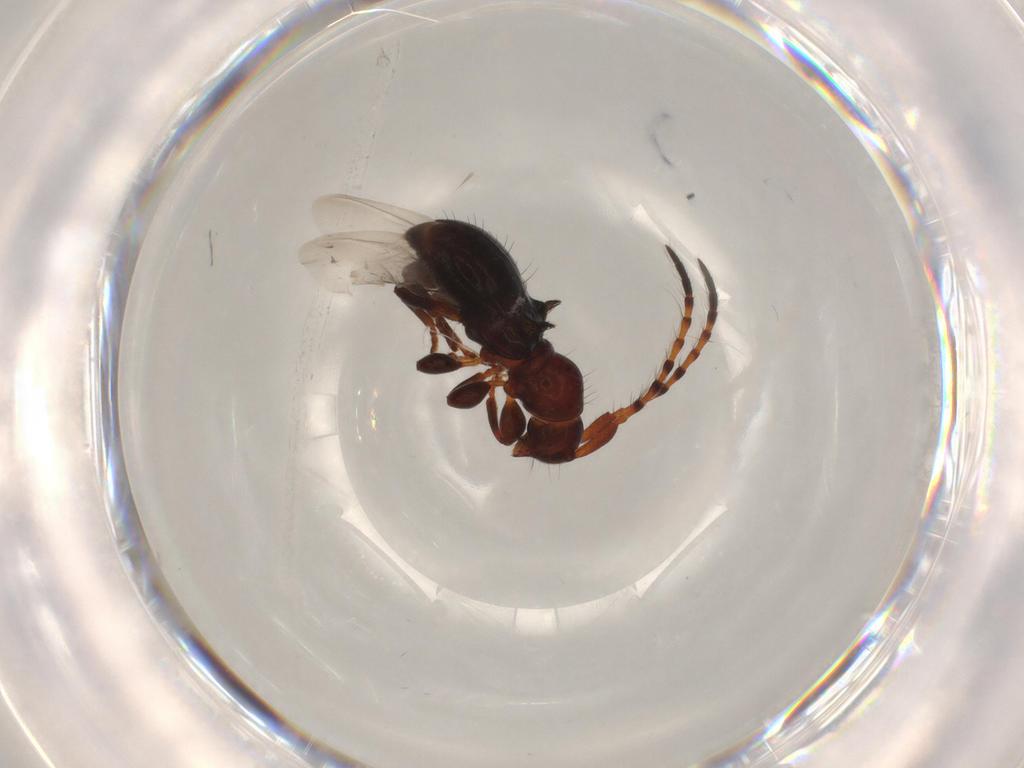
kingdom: Animalia
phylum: Arthropoda
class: Insecta
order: Coleoptera
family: Cerambycidae
